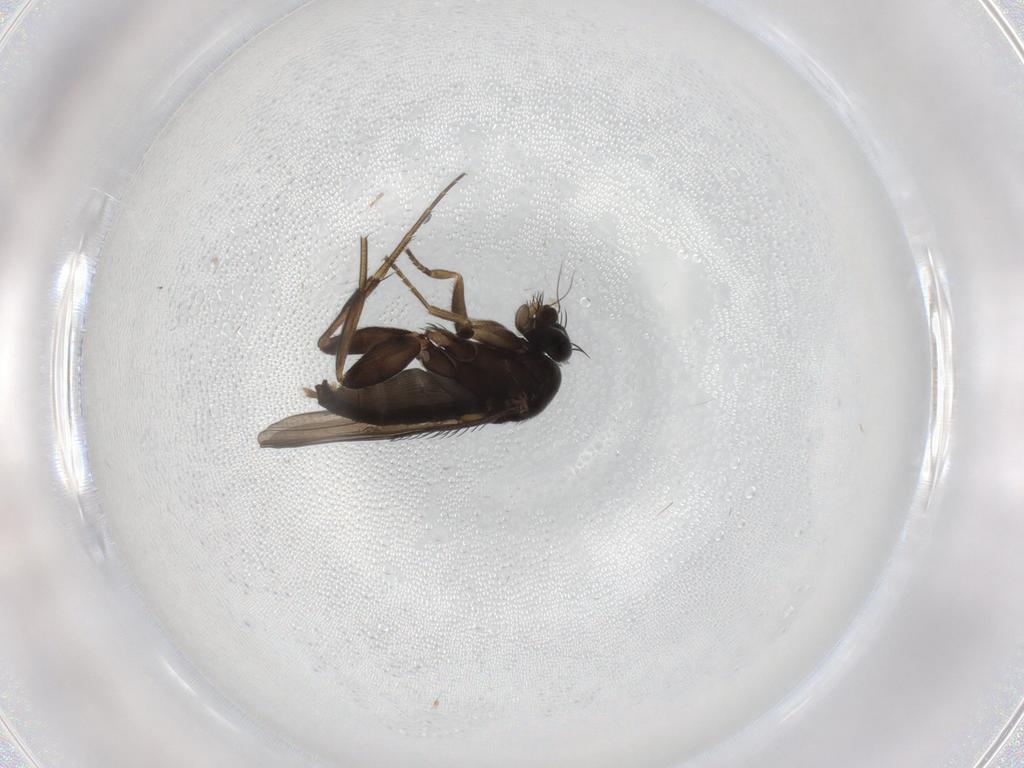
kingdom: Animalia
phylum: Arthropoda
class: Insecta
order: Diptera
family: Phoridae
